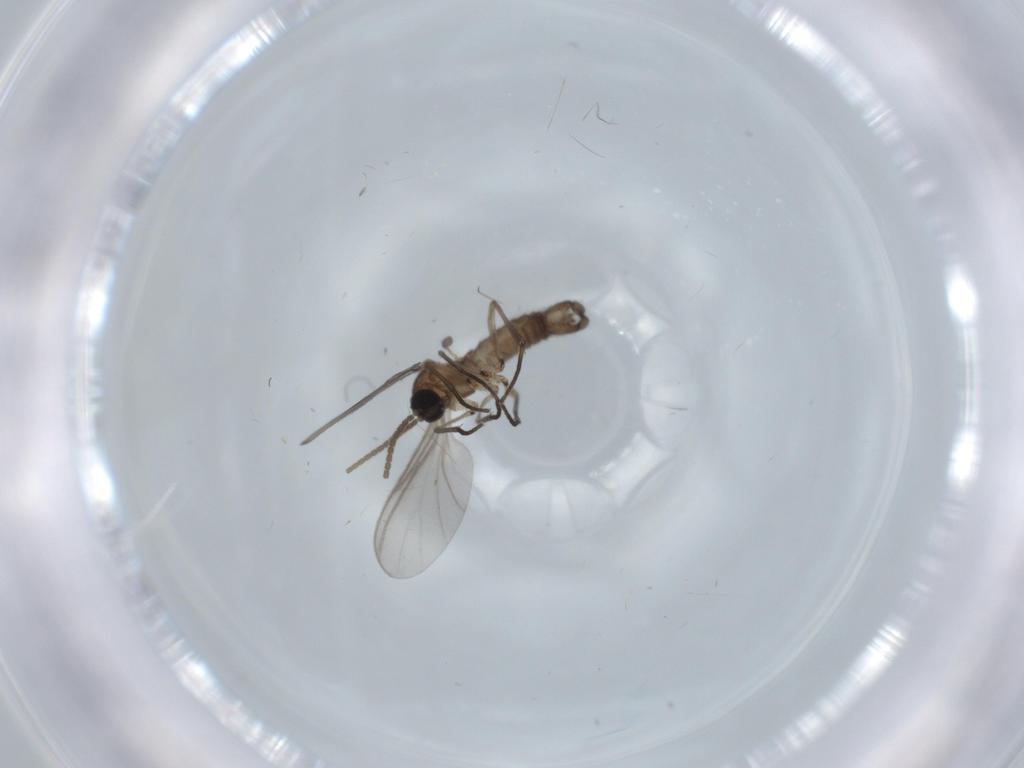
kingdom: Animalia
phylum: Arthropoda
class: Insecta
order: Diptera
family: Sciaridae
